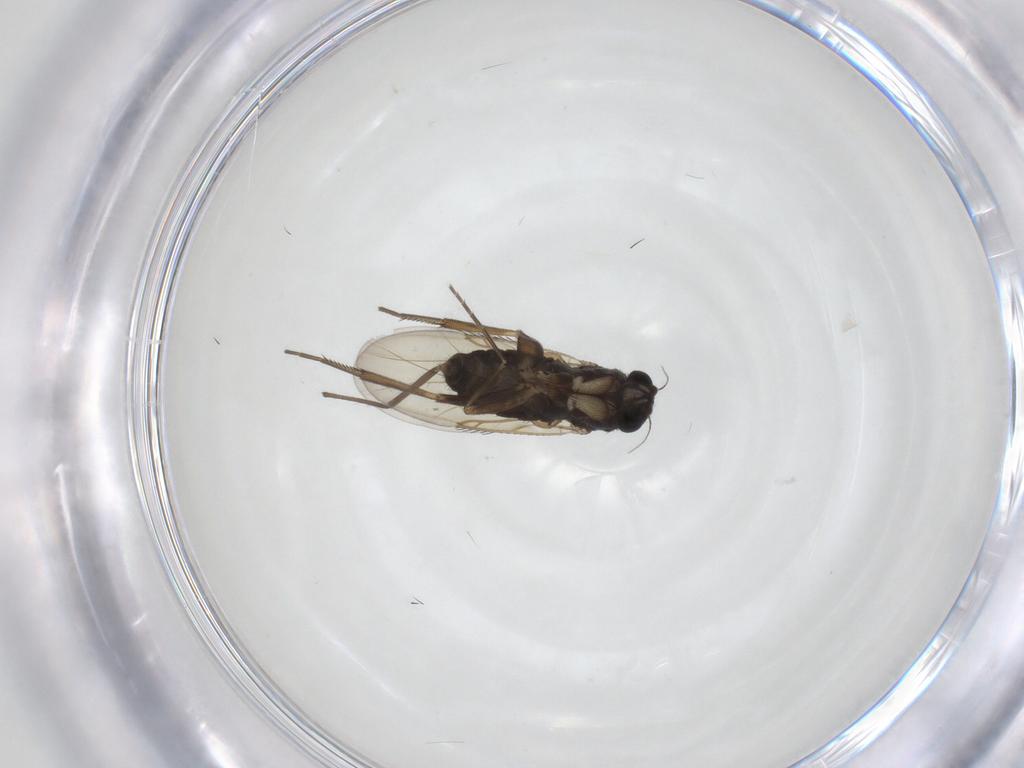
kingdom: Animalia
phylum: Arthropoda
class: Insecta
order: Diptera
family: Phoridae
